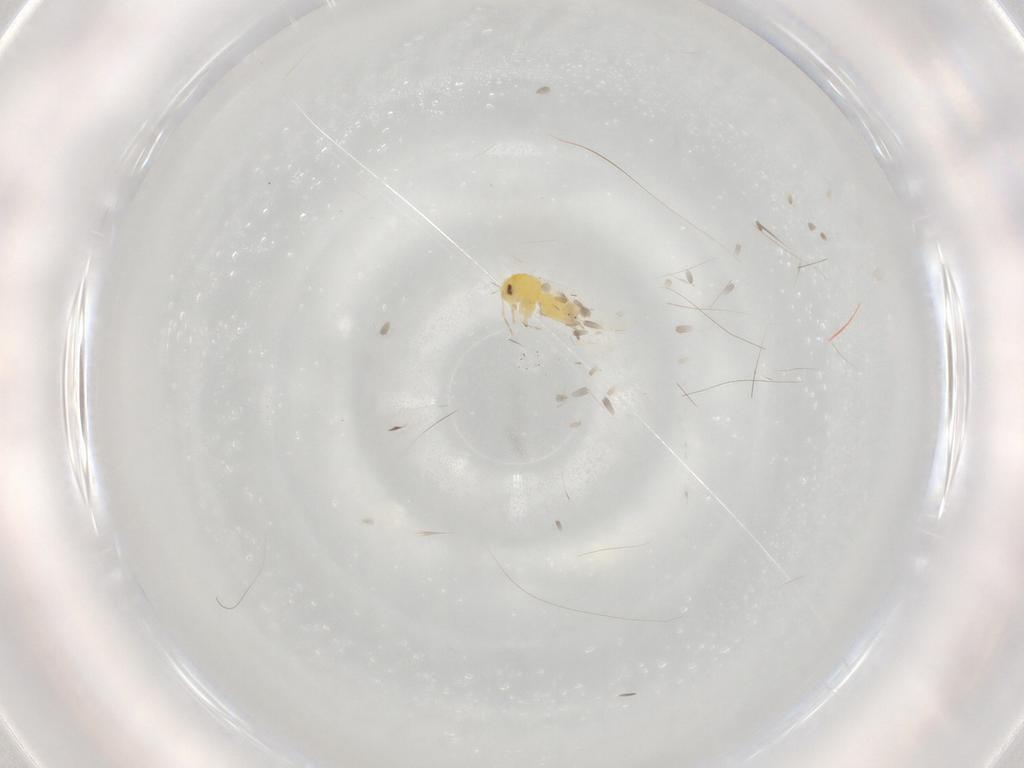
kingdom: Animalia
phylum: Arthropoda
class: Insecta
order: Hemiptera
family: Aleyrodidae
